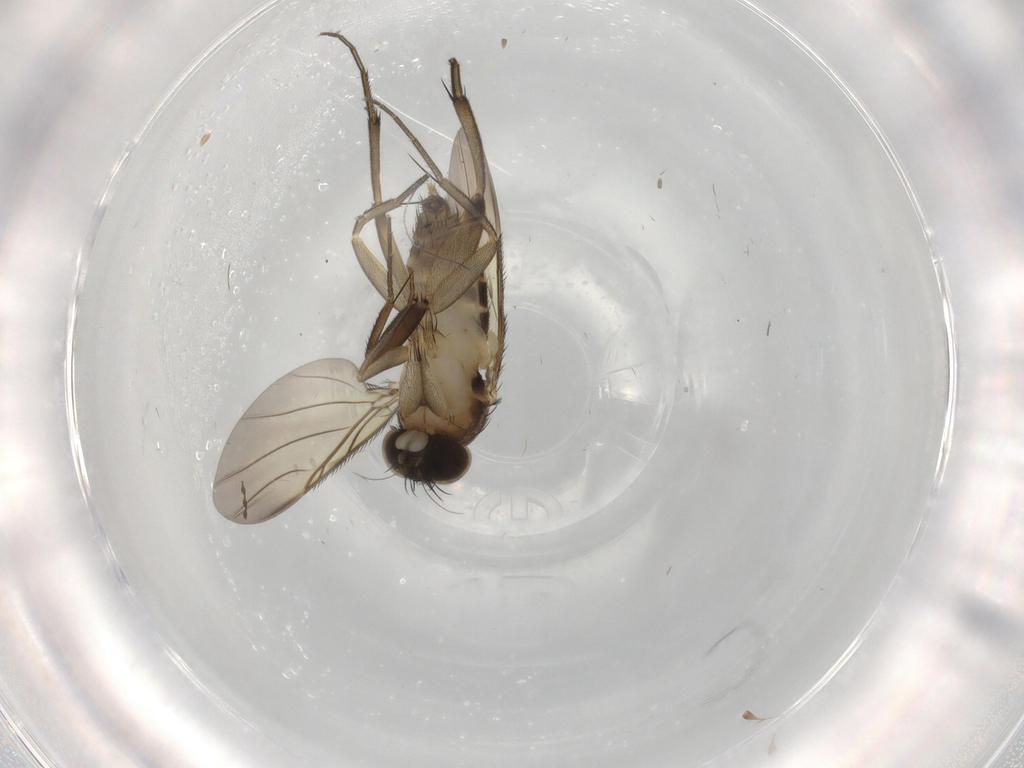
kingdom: Animalia
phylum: Arthropoda
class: Insecta
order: Diptera
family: Phoridae
